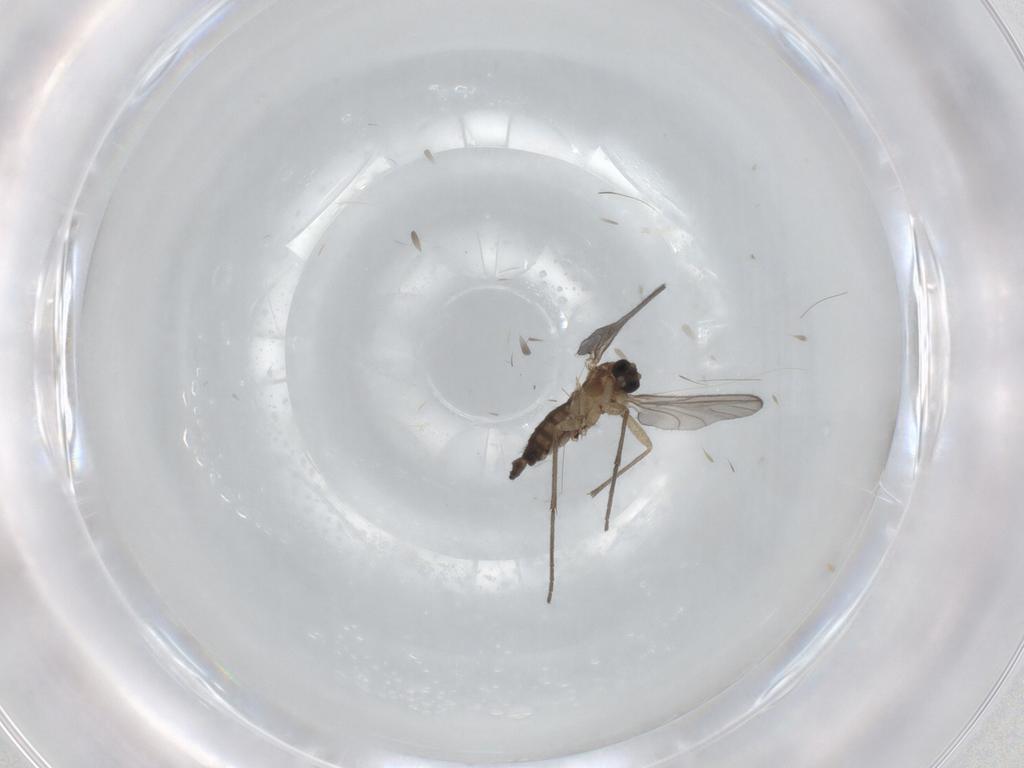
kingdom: Animalia
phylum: Arthropoda
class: Insecta
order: Diptera
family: Sciaridae
